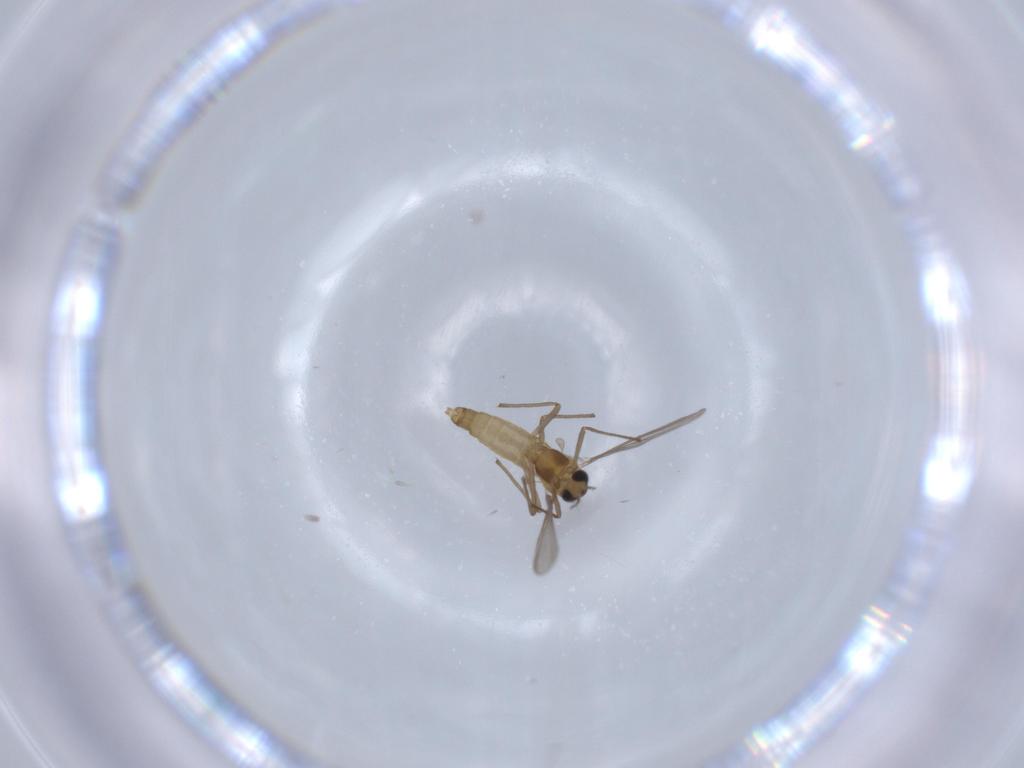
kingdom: Animalia
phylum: Arthropoda
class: Insecta
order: Diptera
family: Chironomidae
